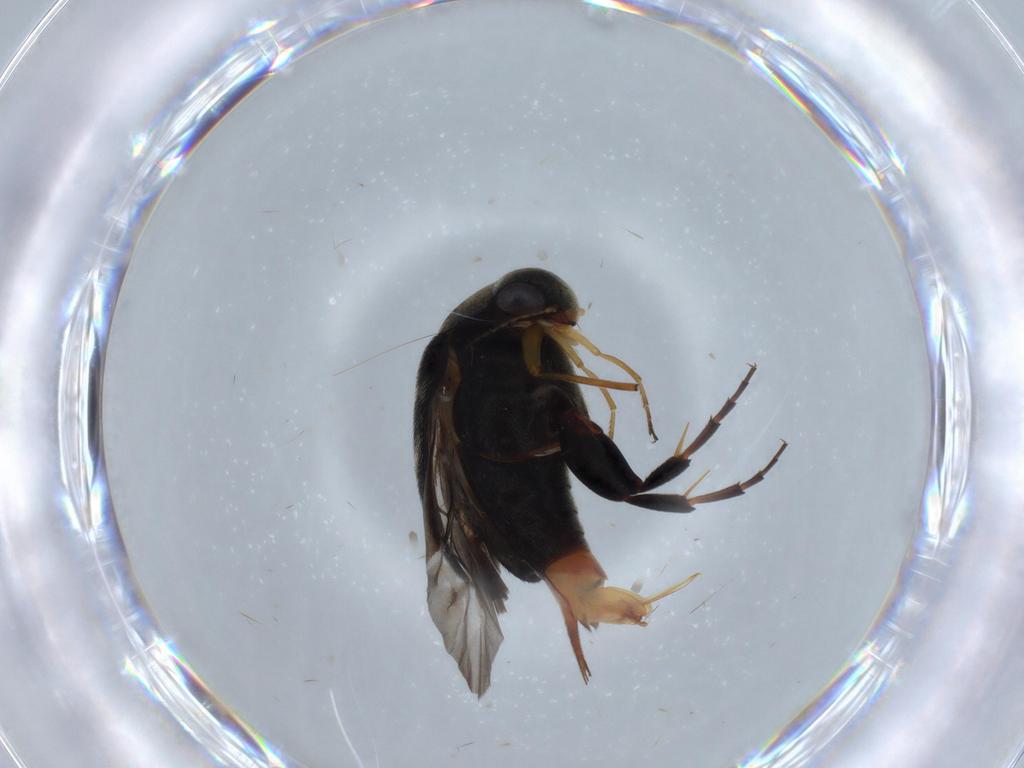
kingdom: Animalia
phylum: Arthropoda
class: Insecta
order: Coleoptera
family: Mordellidae
